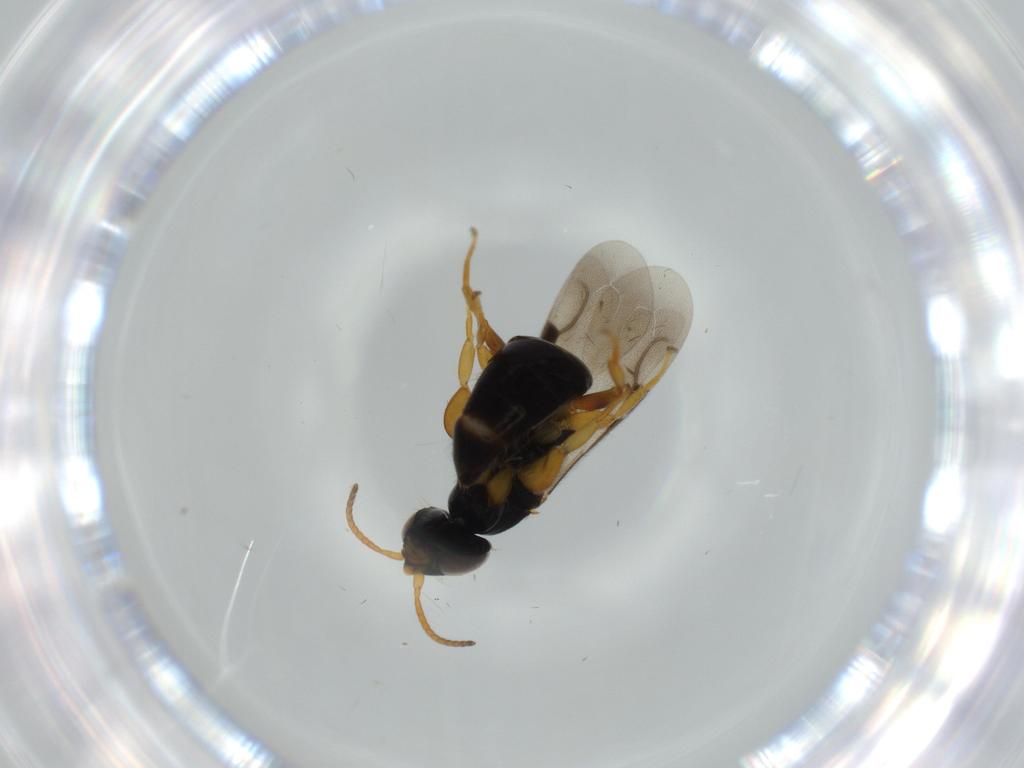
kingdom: Animalia
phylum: Arthropoda
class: Insecta
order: Hymenoptera
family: Bethylidae
